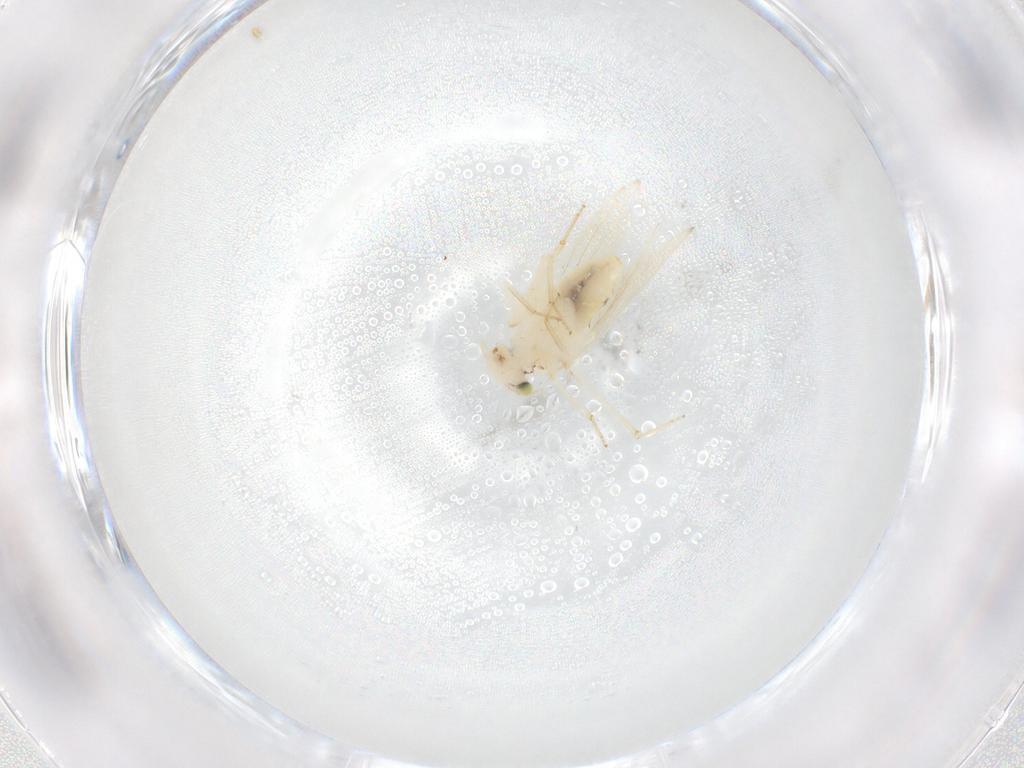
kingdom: Animalia
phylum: Arthropoda
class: Insecta
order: Psocodea
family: Lepidopsocidae
